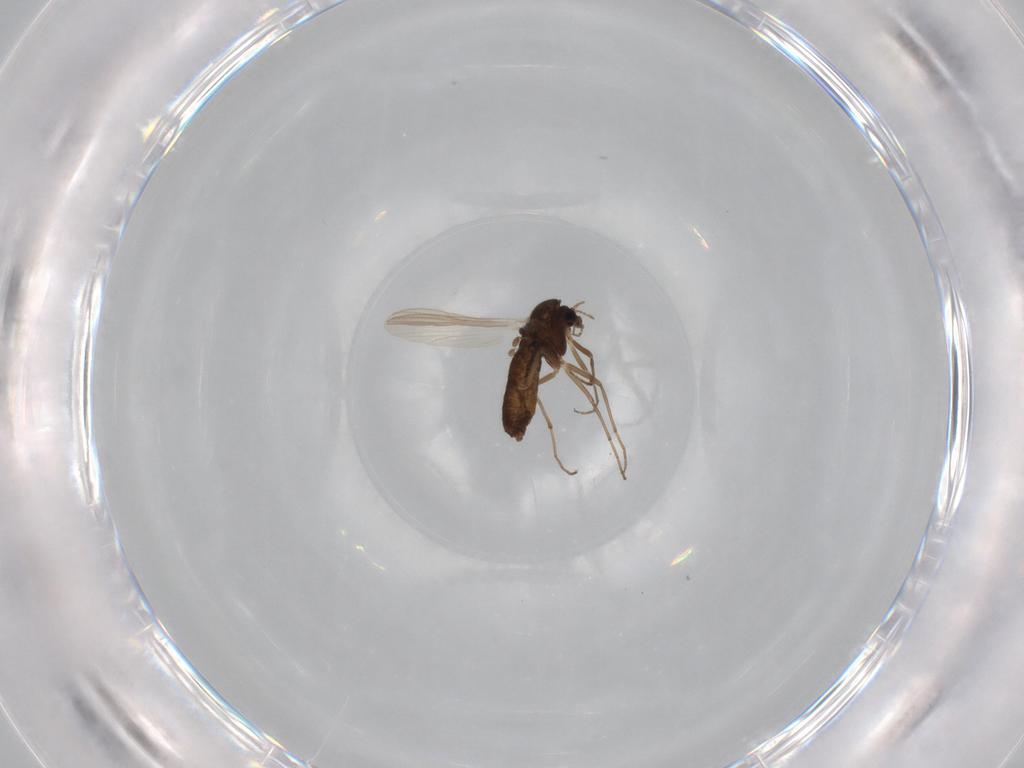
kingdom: Animalia
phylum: Arthropoda
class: Insecta
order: Diptera
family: Chironomidae
